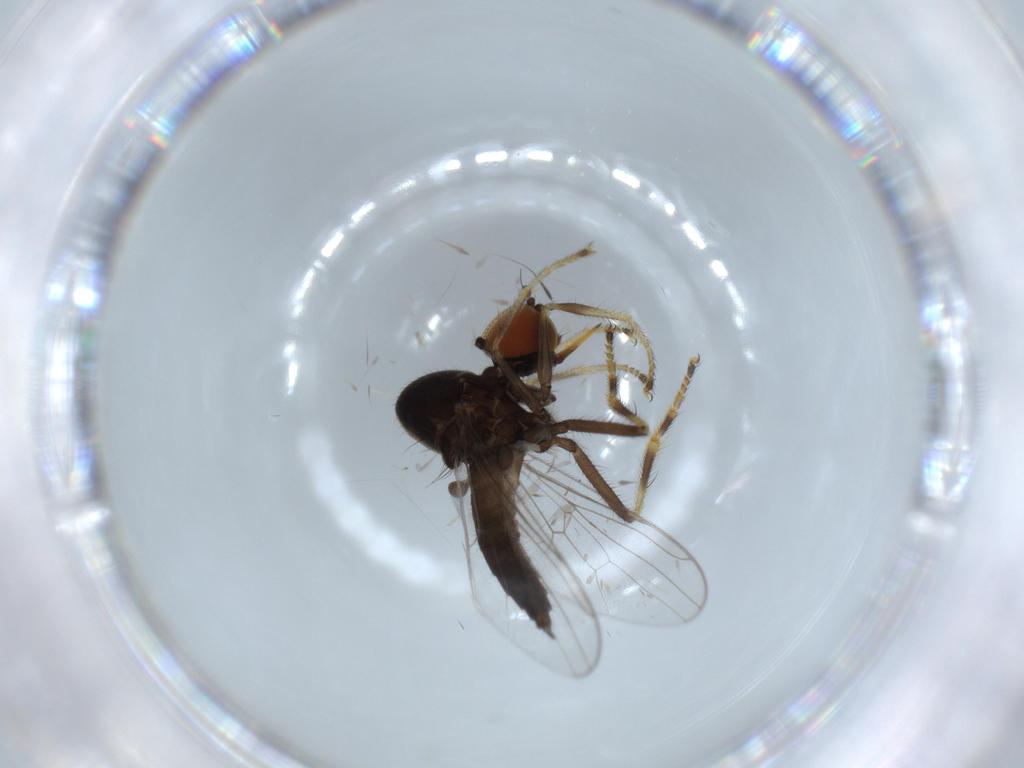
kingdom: Animalia
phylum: Arthropoda
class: Insecta
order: Diptera
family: Hybotidae
